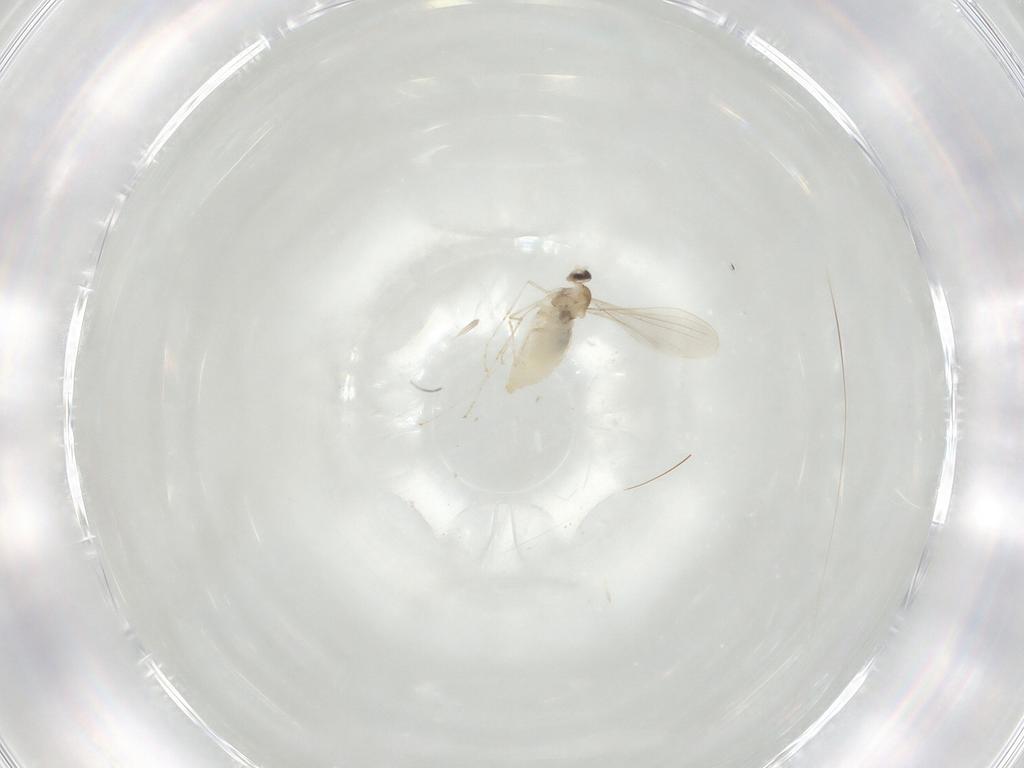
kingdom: Animalia
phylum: Arthropoda
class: Insecta
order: Diptera
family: Cecidomyiidae
